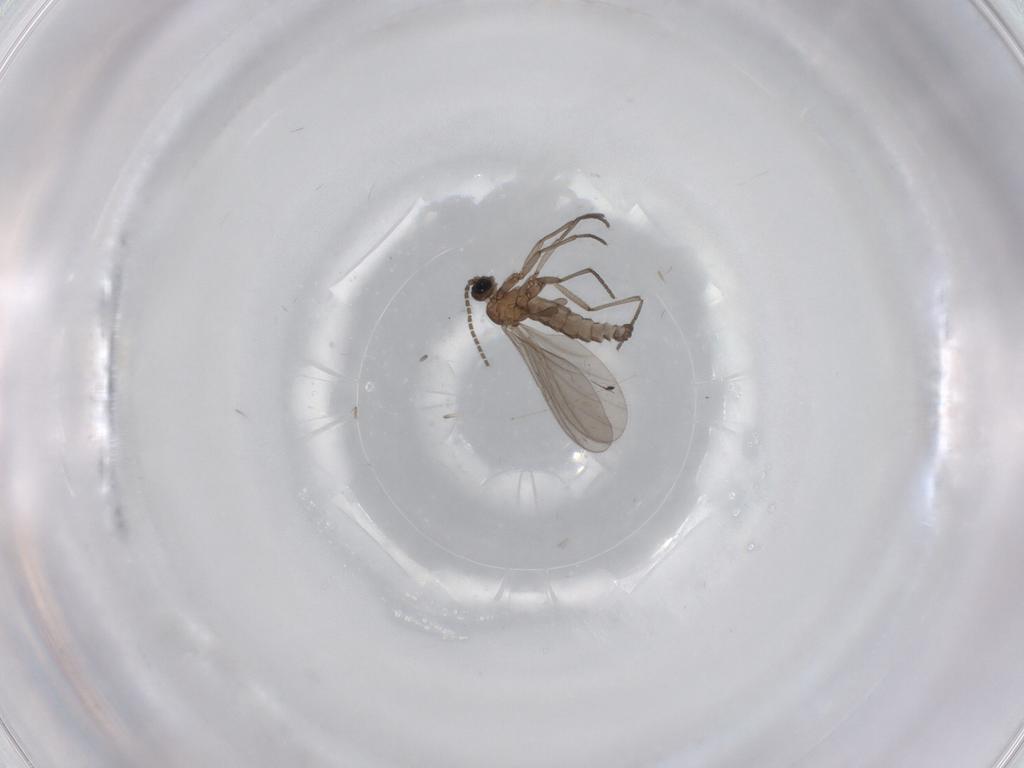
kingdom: Animalia
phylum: Arthropoda
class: Insecta
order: Diptera
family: Sciaridae
